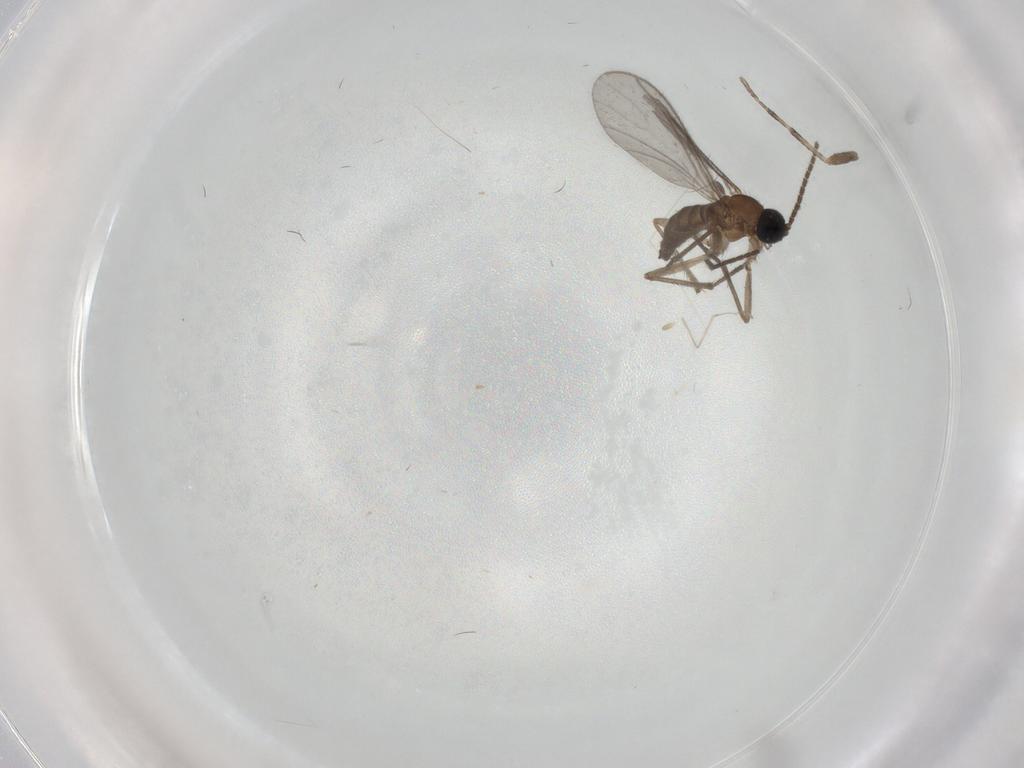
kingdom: Animalia
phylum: Arthropoda
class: Insecta
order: Diptera
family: Sciaridae
